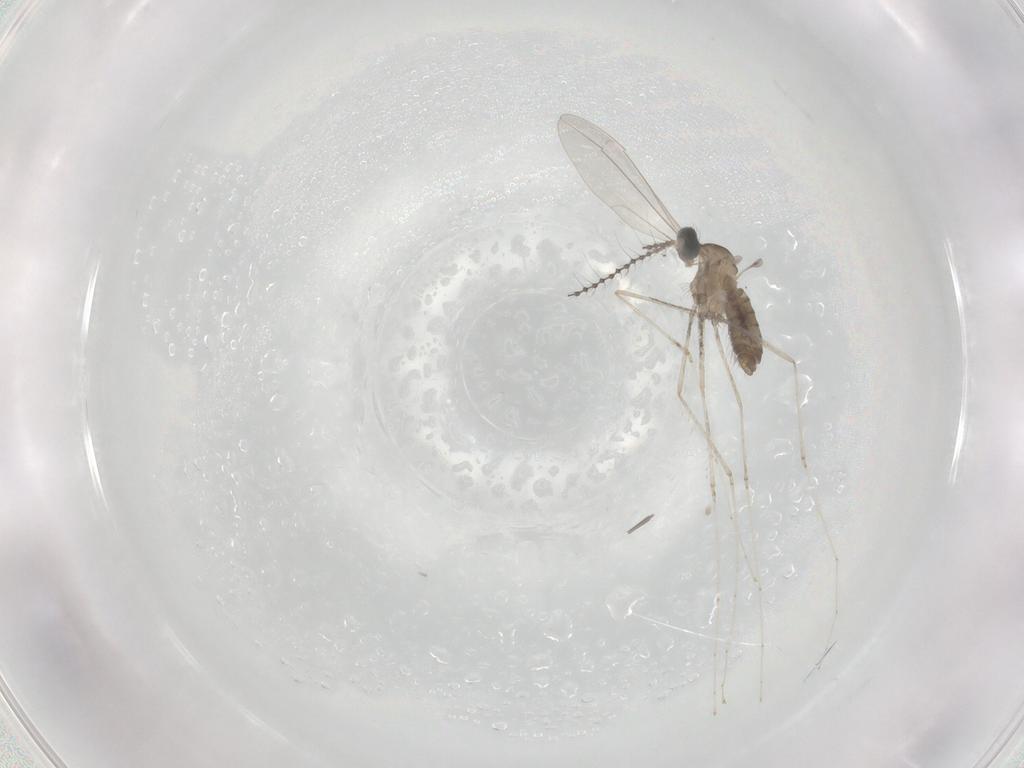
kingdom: Animalia
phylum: Arthropoda
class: Insecta
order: Diptera
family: Cecidomyiidae
